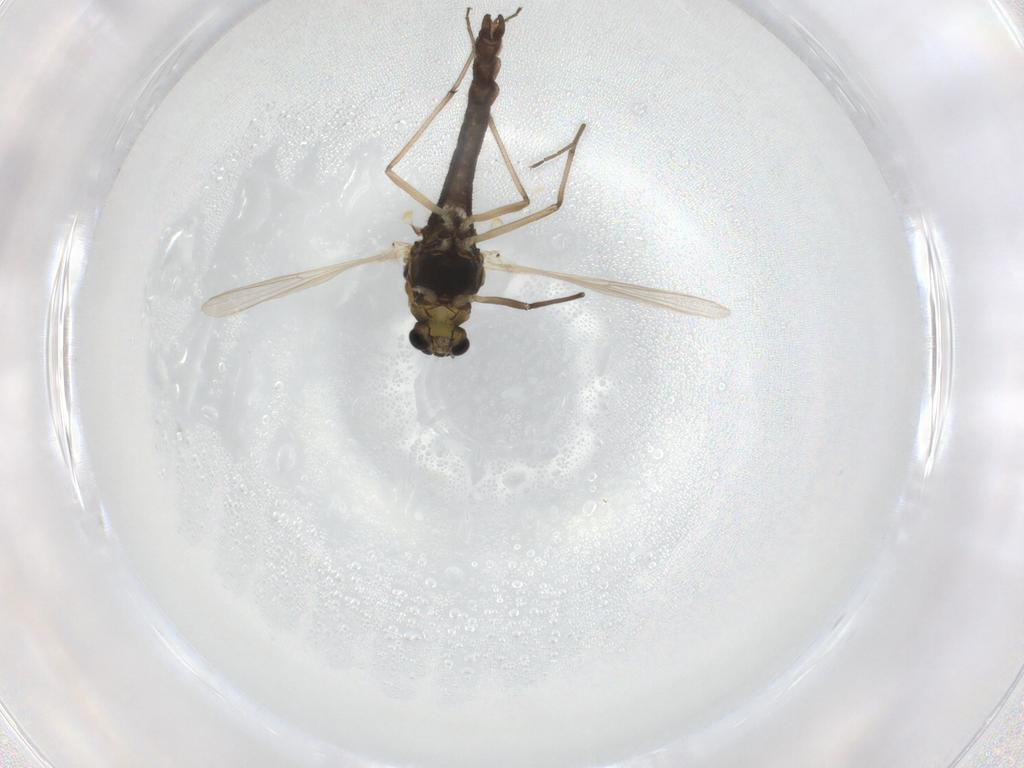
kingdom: Animalia
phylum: Arthropoda
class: Insecta
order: Diptera
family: Chironomidae
